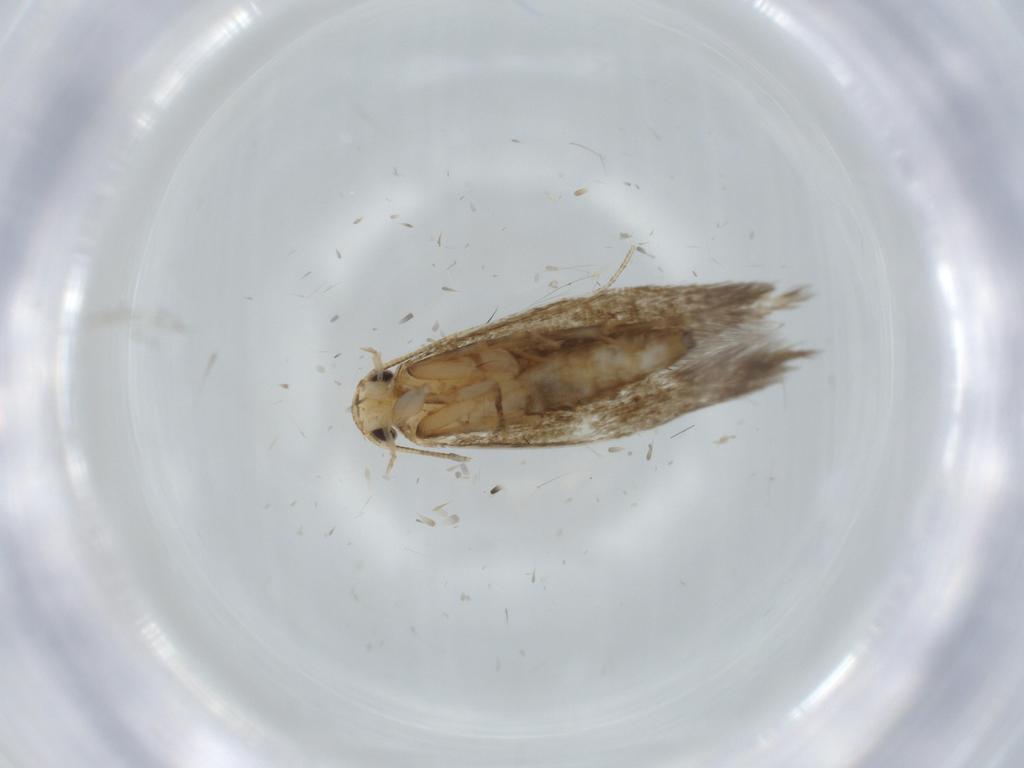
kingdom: Animalia
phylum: Arthropoda
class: Insecta
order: Lepidoptera
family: Tineidae
